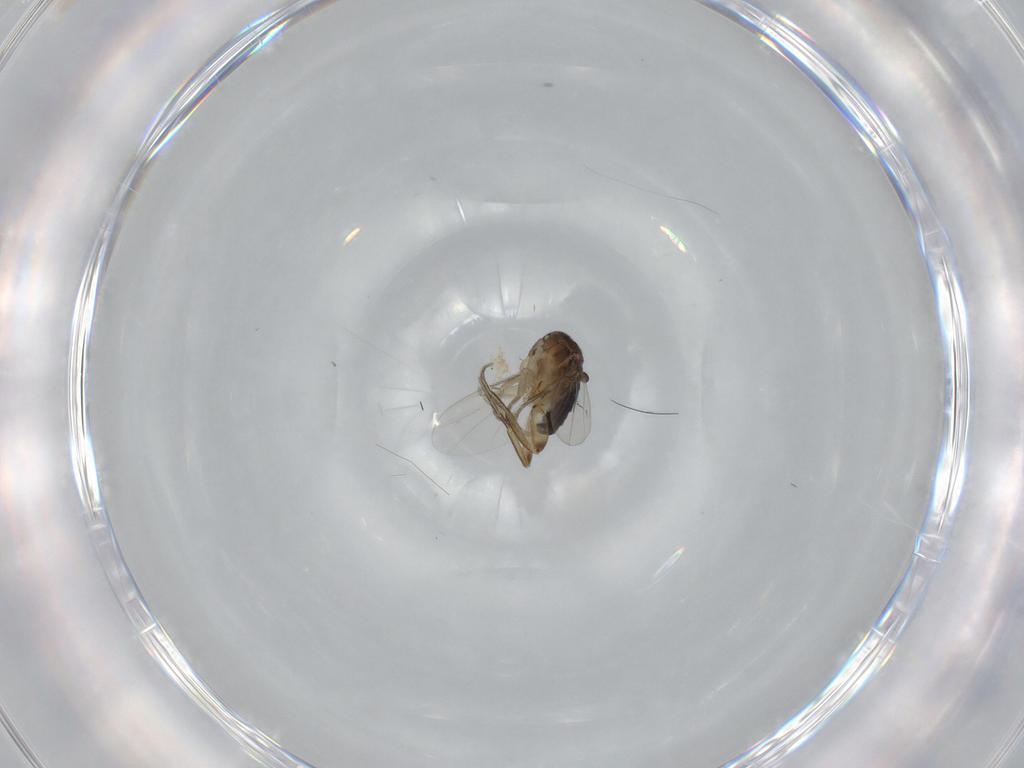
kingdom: Animalia
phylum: Arthropoda
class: Insecta
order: Diptera
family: Phoridae
